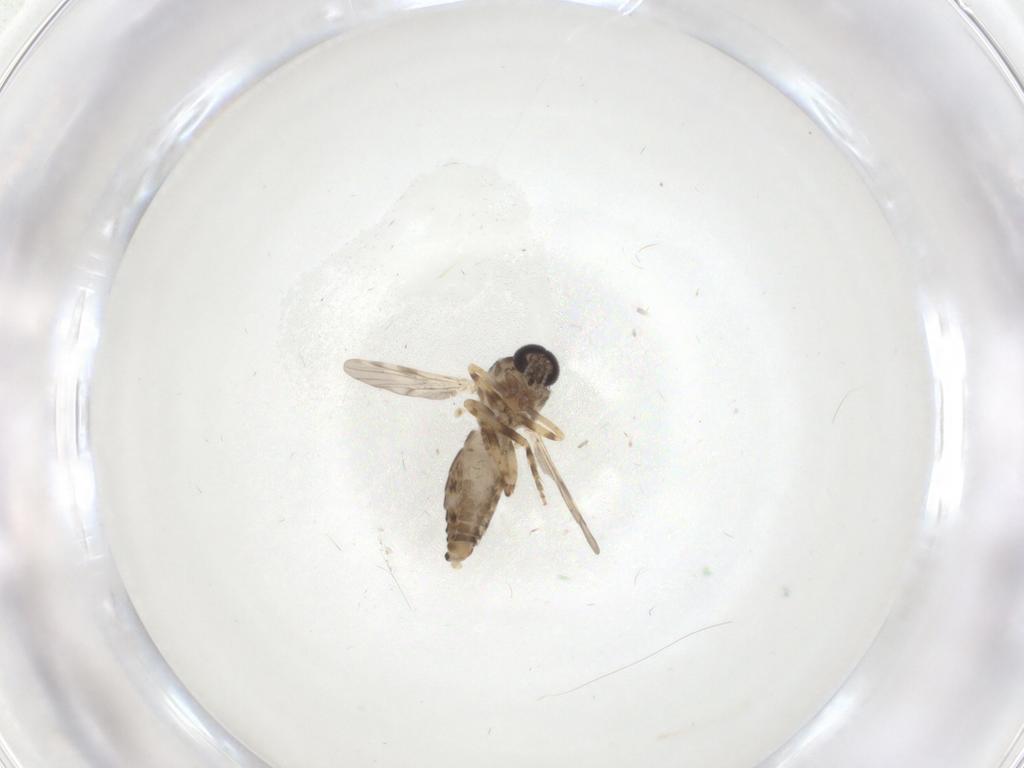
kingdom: Animalia
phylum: Arthropoda
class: Insecta
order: Diptera
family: Ceratopogonidae
